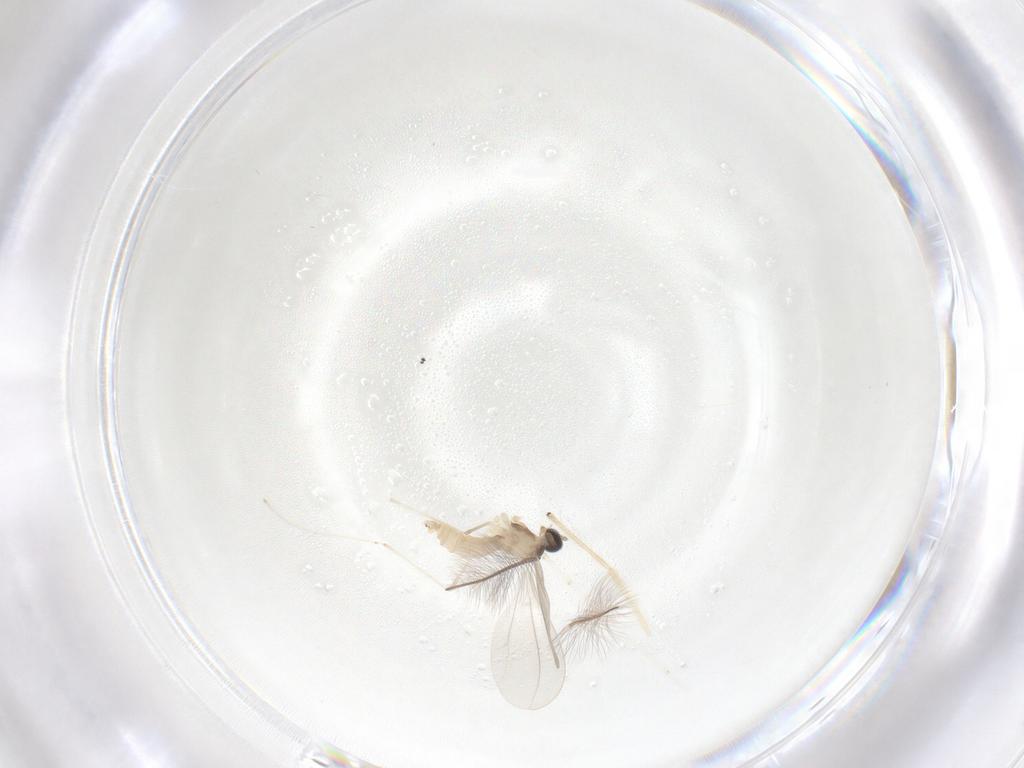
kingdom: Animalia
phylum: Arthropoda
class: Insecta
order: Diptera
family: Cecidomyiidae
